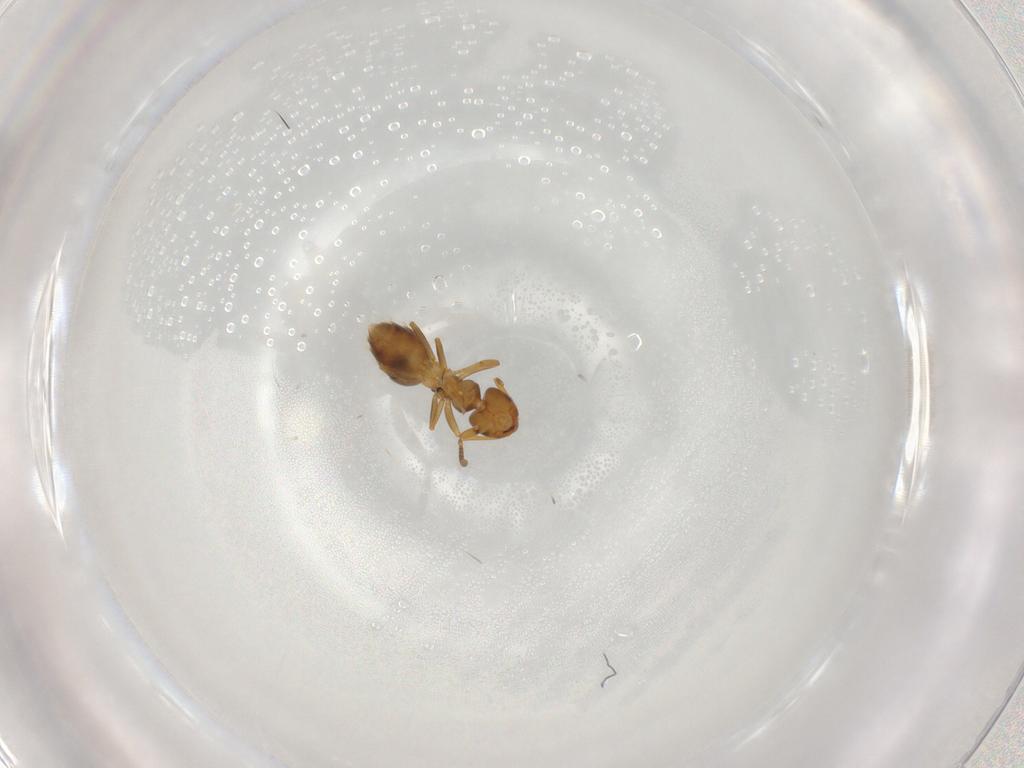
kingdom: Animalia
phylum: Arthropoda
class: Insecta
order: Hymenoptera
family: Formicidae
